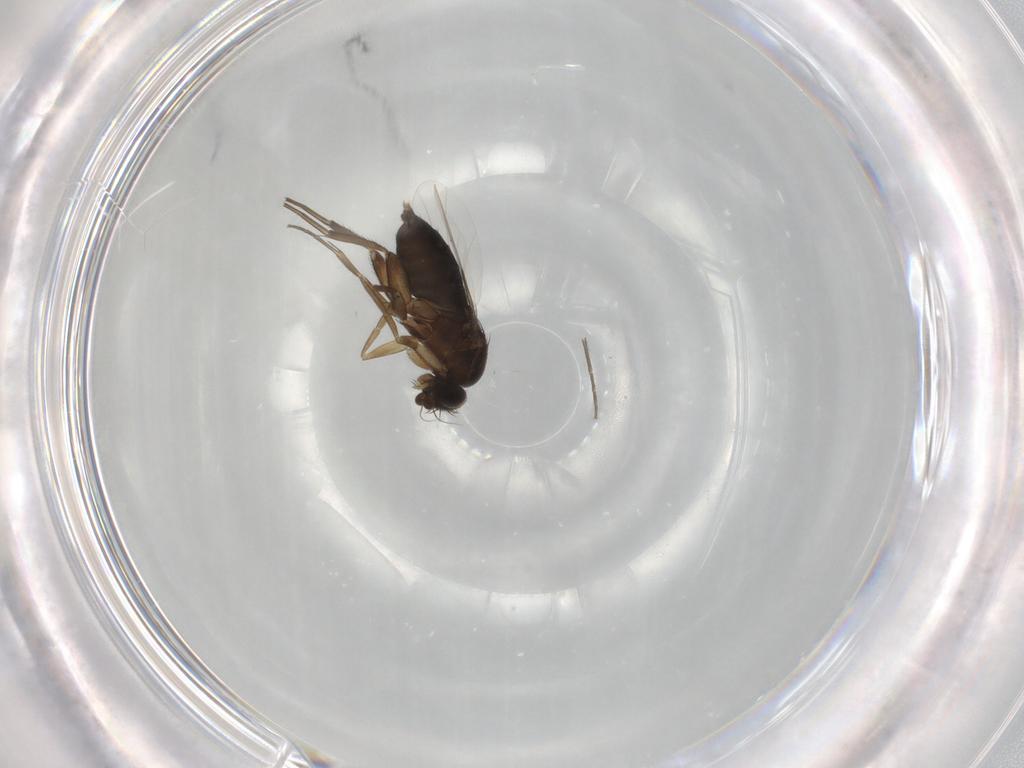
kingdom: Animalia
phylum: Arthropoda
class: Insecta
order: Diptera
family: Phoridae
